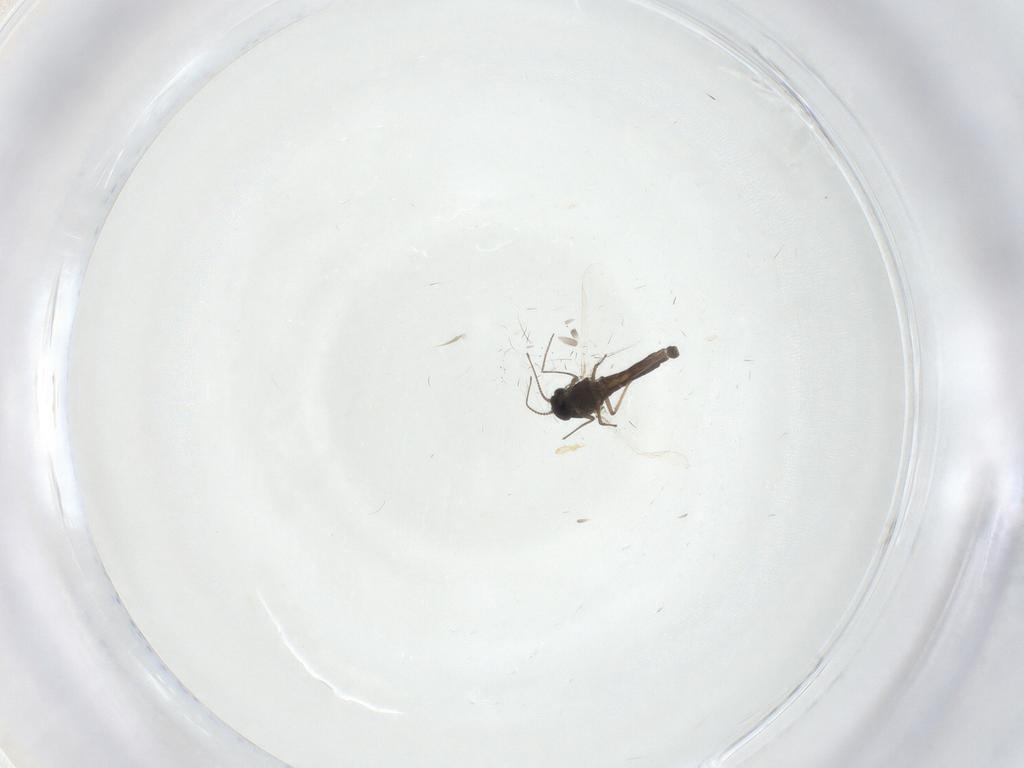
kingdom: Animalia
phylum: Arthropoda
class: Insecta
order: Diptera
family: Chironomidae
